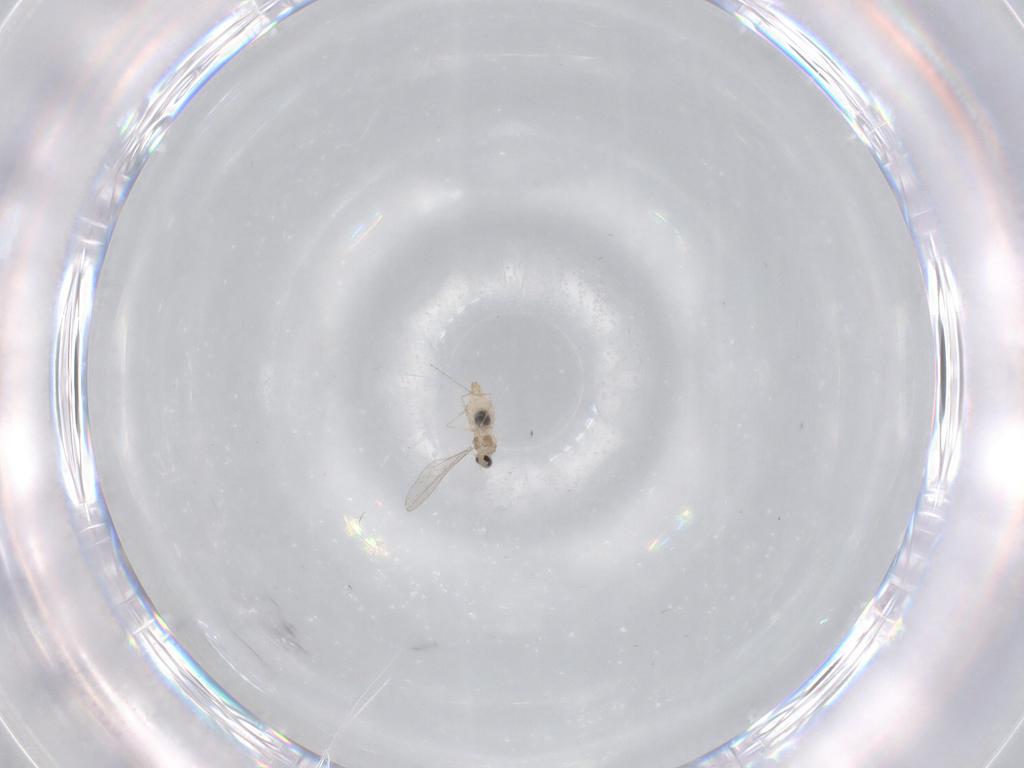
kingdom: Animalia
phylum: Arthropoda
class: Insecta
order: Diptera
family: Cecidomyiidae
